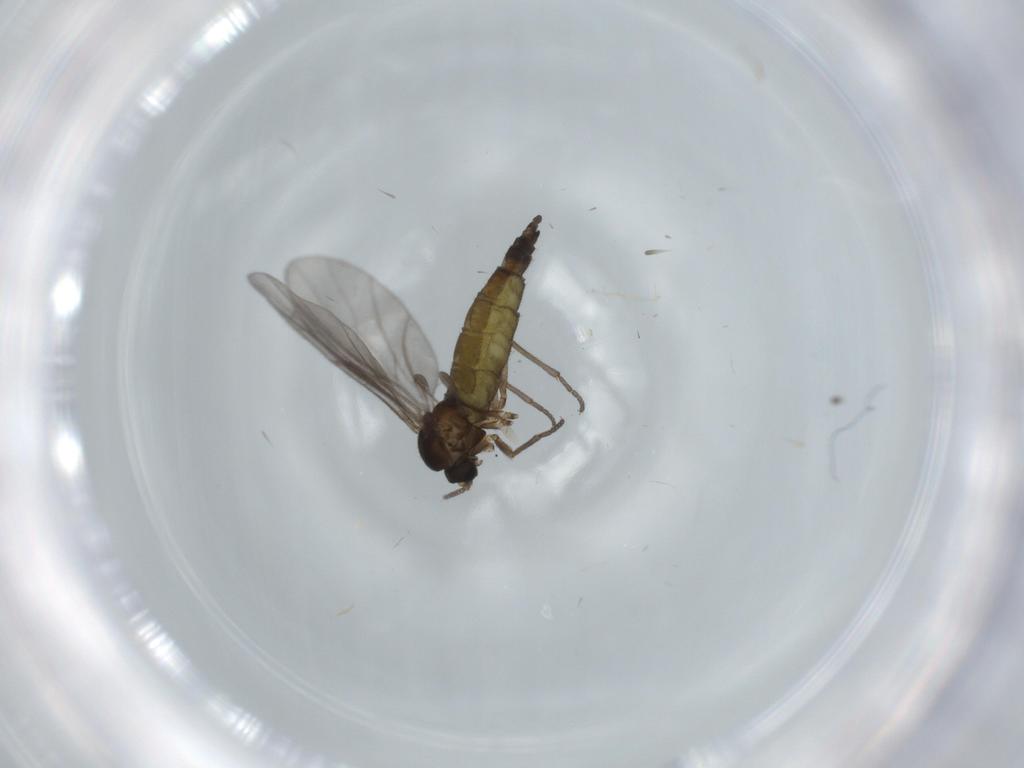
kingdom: Animalia
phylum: Arthropoda
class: Insecta
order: Diptera
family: Sciaridae
